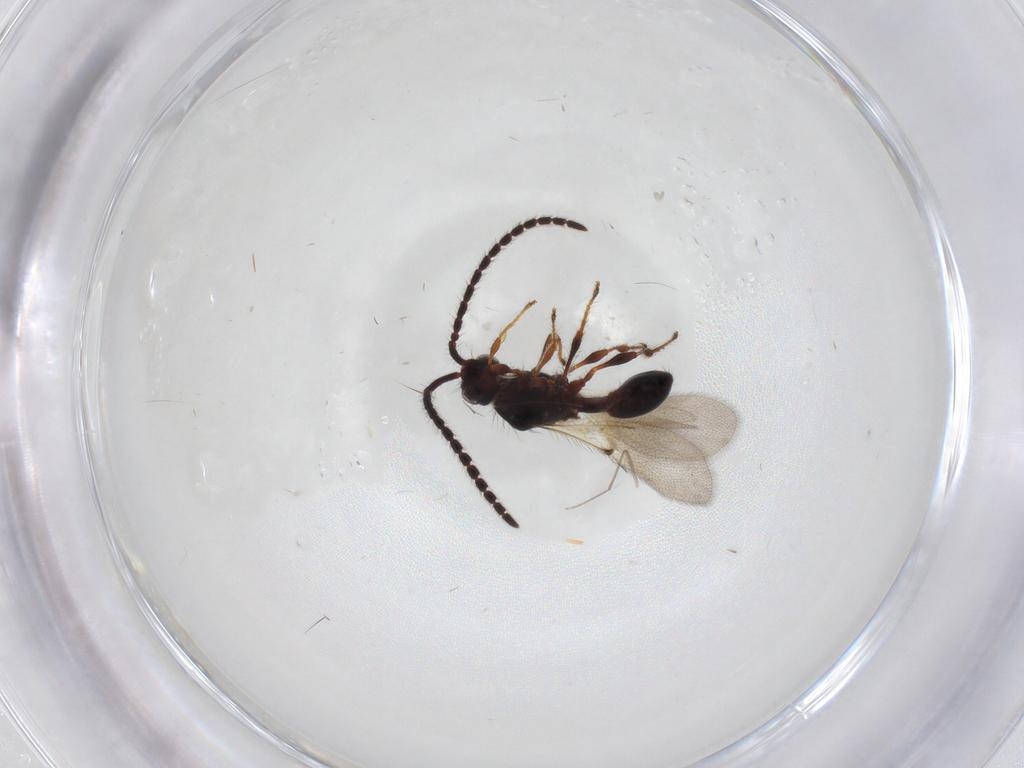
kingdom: Animalia
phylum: Arthropoda
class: Insecta
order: Hymenoptera
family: Diapriidae
